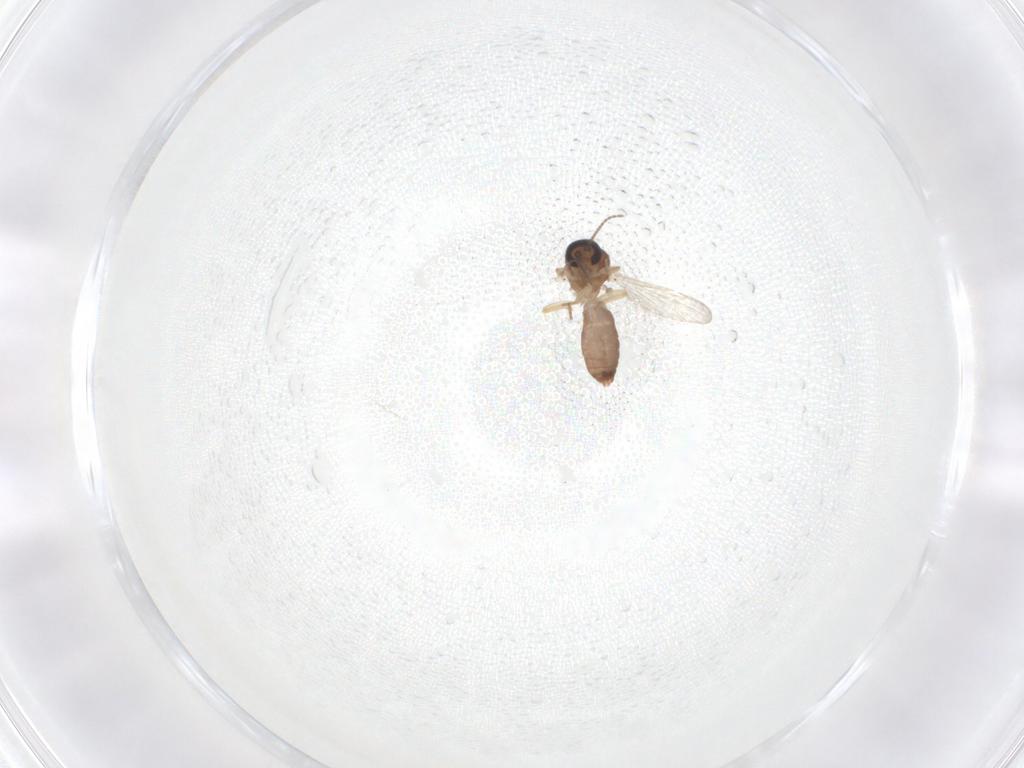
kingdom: Animalia
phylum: Arthropoda
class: Insecta
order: Diptera
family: Ceratopogonidae
